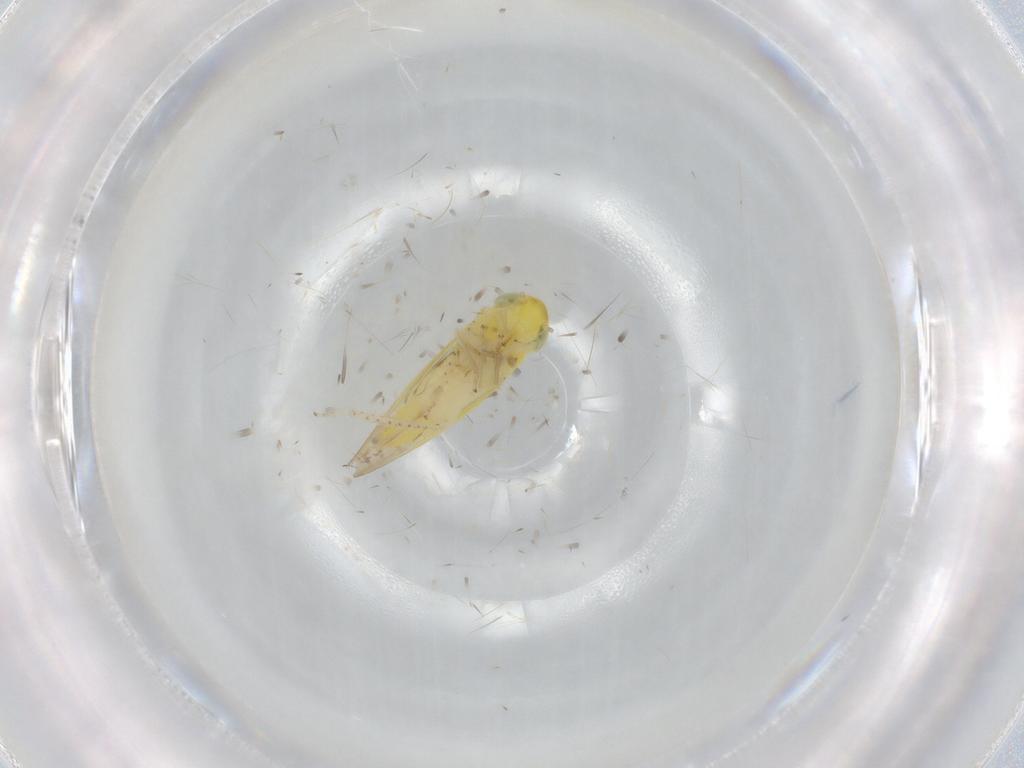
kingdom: Animalia
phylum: Arthropoda
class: Insecta
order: Hemiptera
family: Cicadellidae
